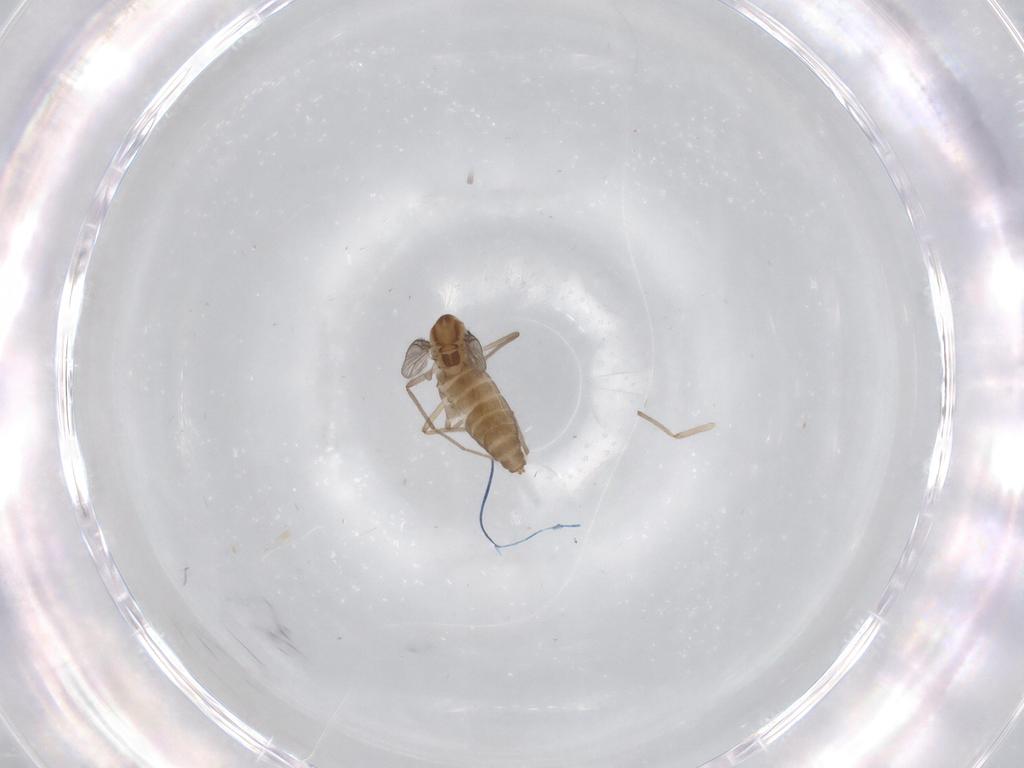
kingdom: Animalia
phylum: Arthropoda
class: Insecta
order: Diptera
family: Chironomidae
